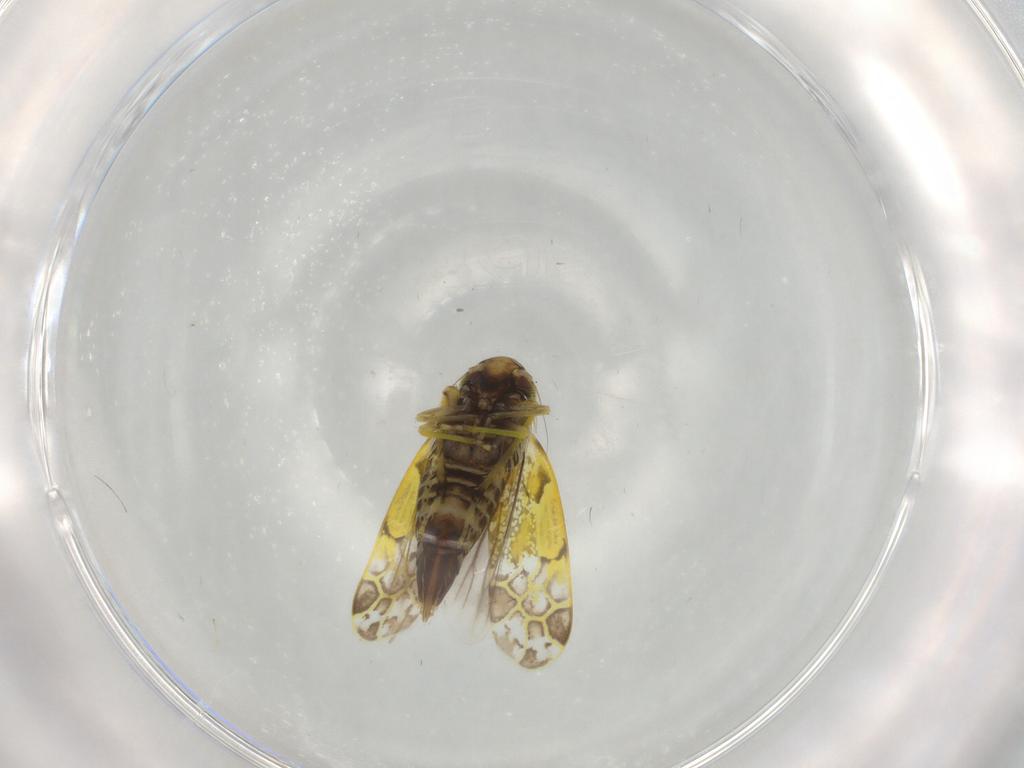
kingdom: Animalia
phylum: Arthropoda
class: Insecta
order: Hemiptera
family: Cicadellidae
